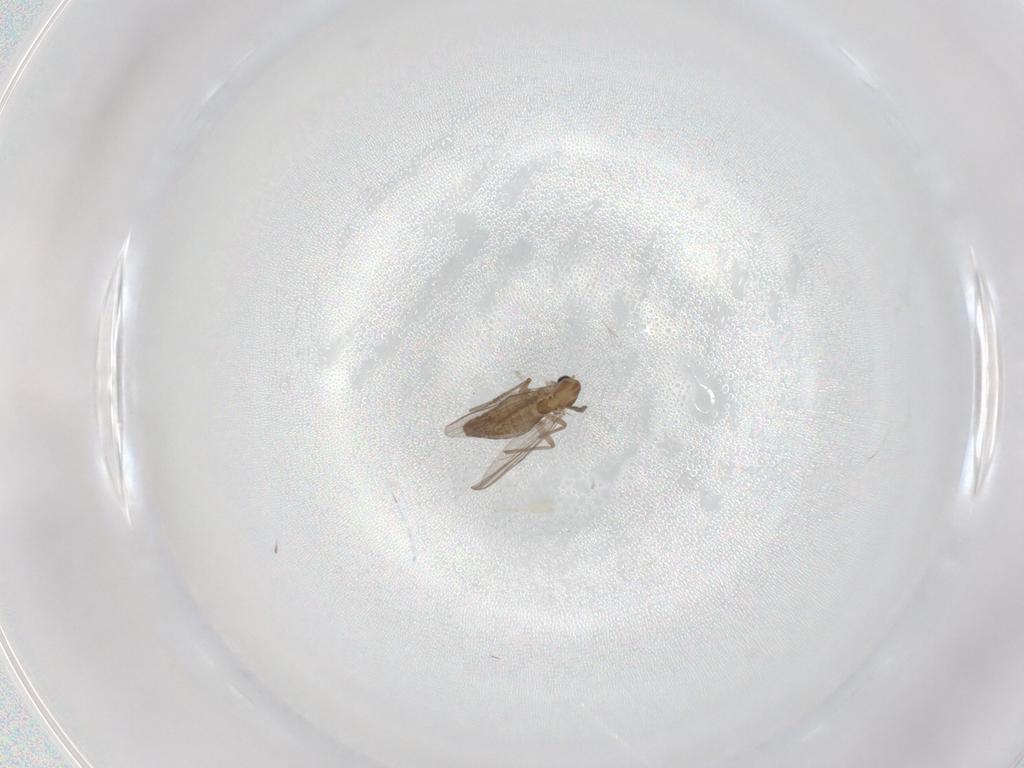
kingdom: Animalia
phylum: Arthropoda
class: Insecta
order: Diptera
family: Chironomidae
